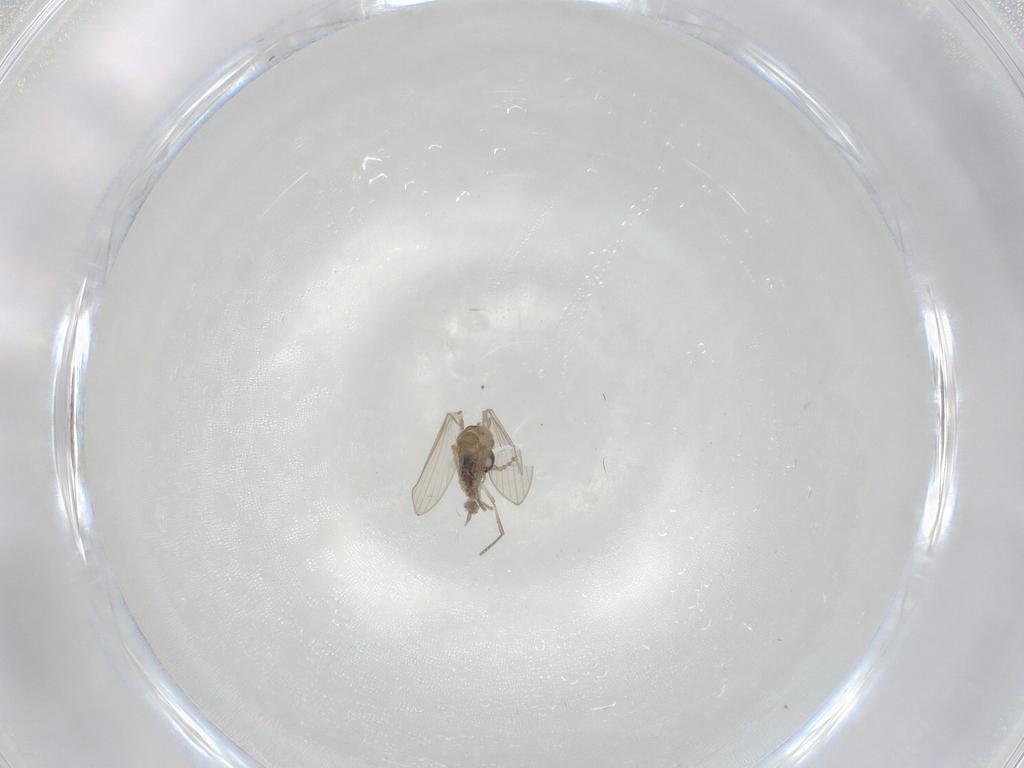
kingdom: Animalia
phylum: Arthropoda
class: Insecta
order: Diptera
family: Psychodidae
